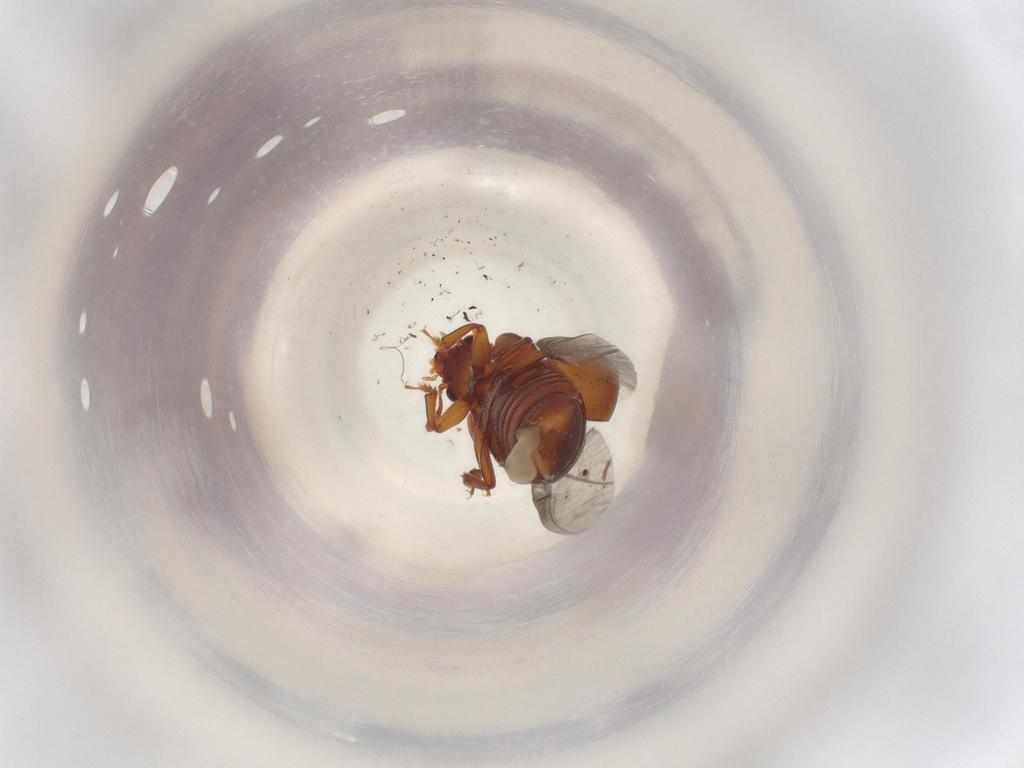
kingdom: Animalia
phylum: Arthropoda
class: Insecta
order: Coleoptera
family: Nitidulidae
